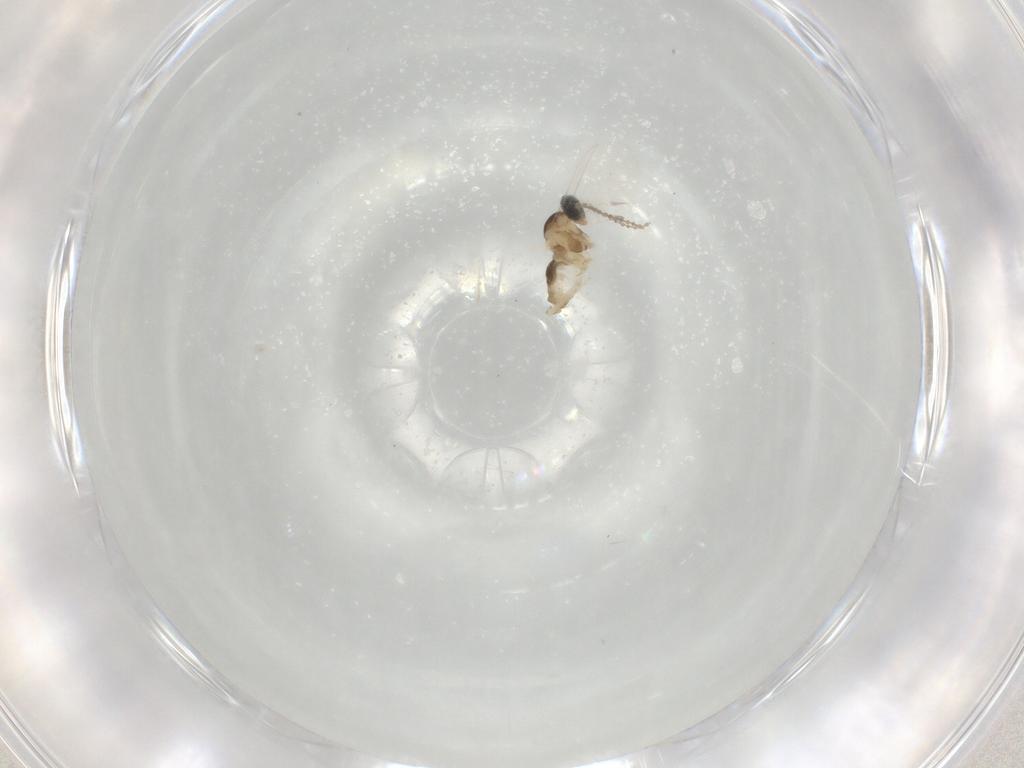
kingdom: Animalia
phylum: Arthropoda
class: Insecta
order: Diptera
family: Cecidomyiidae
